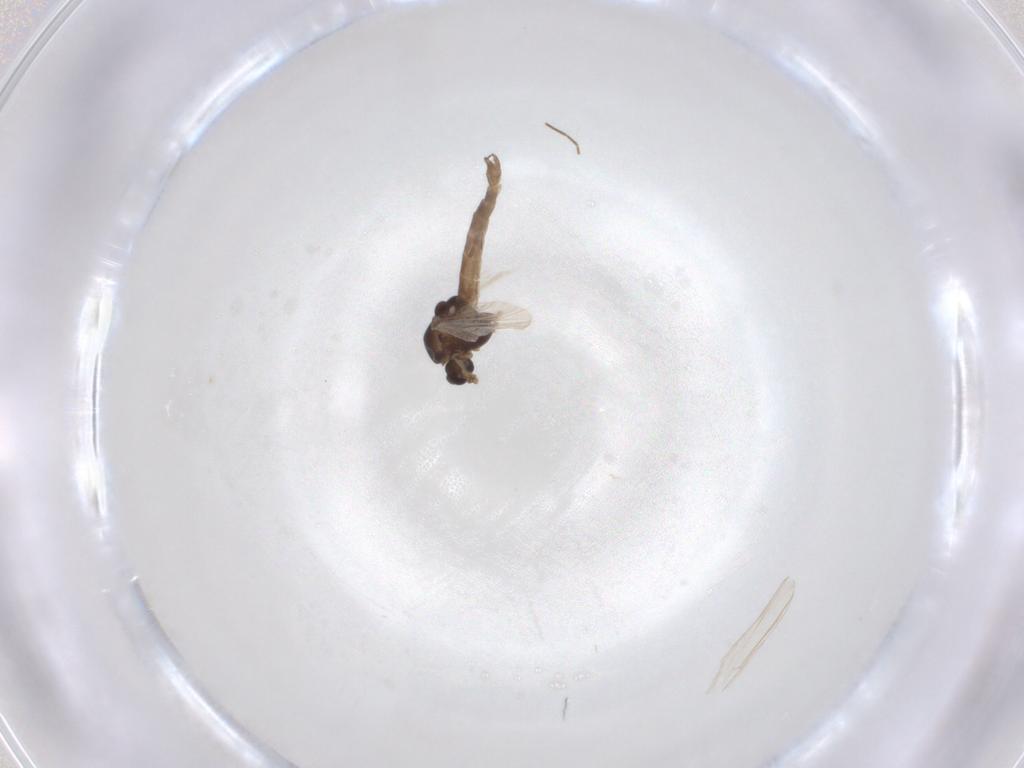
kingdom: Animalia
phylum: Arthropoda
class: Insecta
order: Diptera
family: Chironomidae
